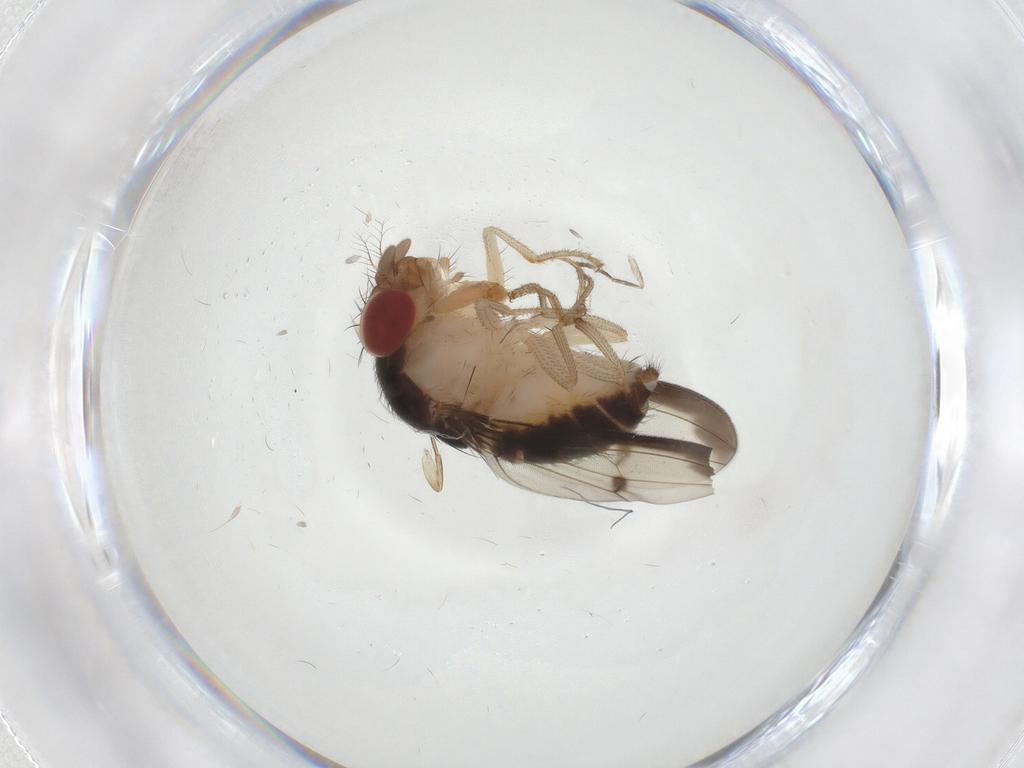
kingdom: Animalia
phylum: Arthropoda
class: Insecta
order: Diptera
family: Drosophilidae
